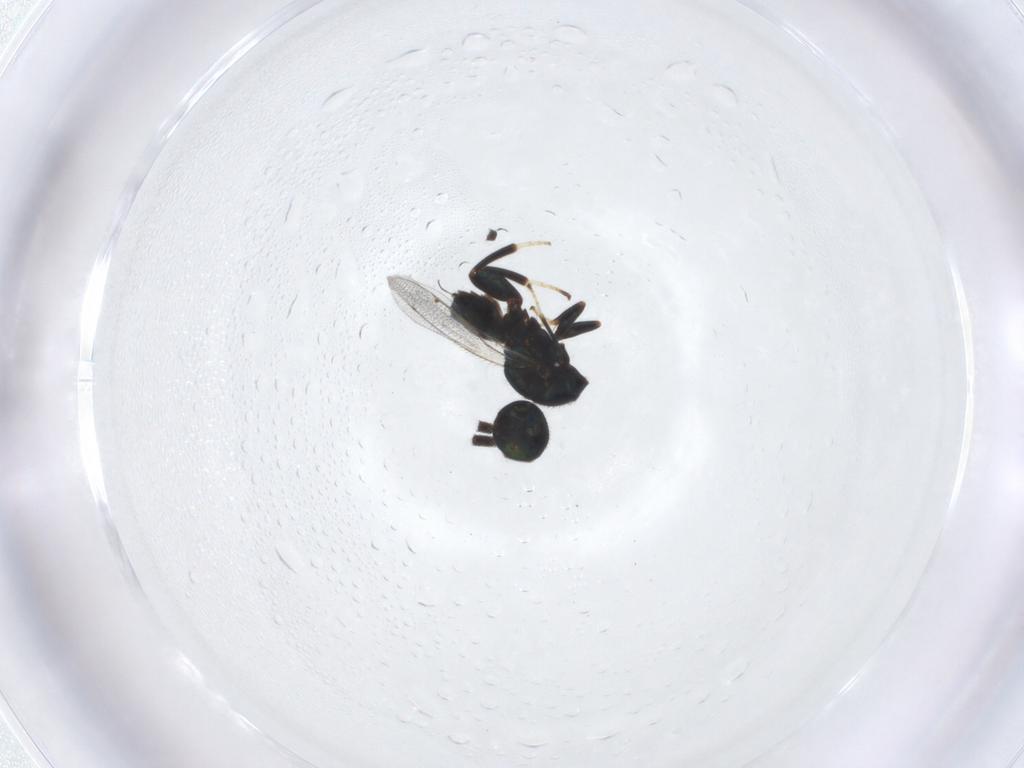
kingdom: Animalia
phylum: Arthropoda
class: Insecta
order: Hymenoptera
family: Torymidae
